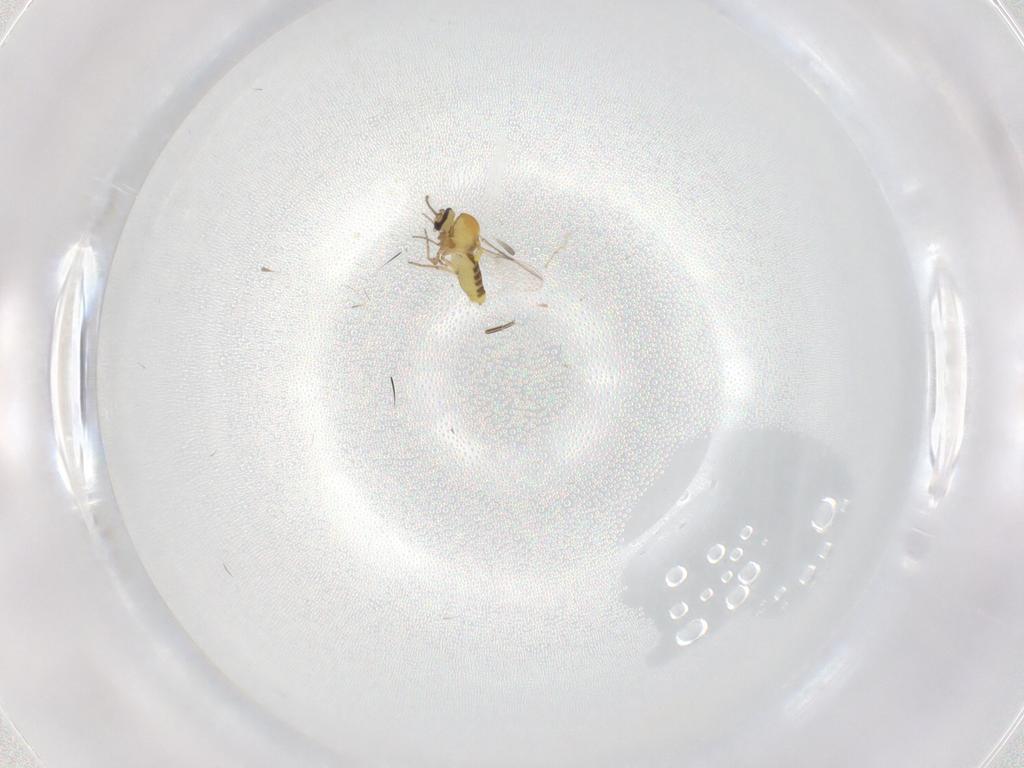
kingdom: Animalia
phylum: Arthropoda
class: Insecta
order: Diptera
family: Ceratopogonidae
